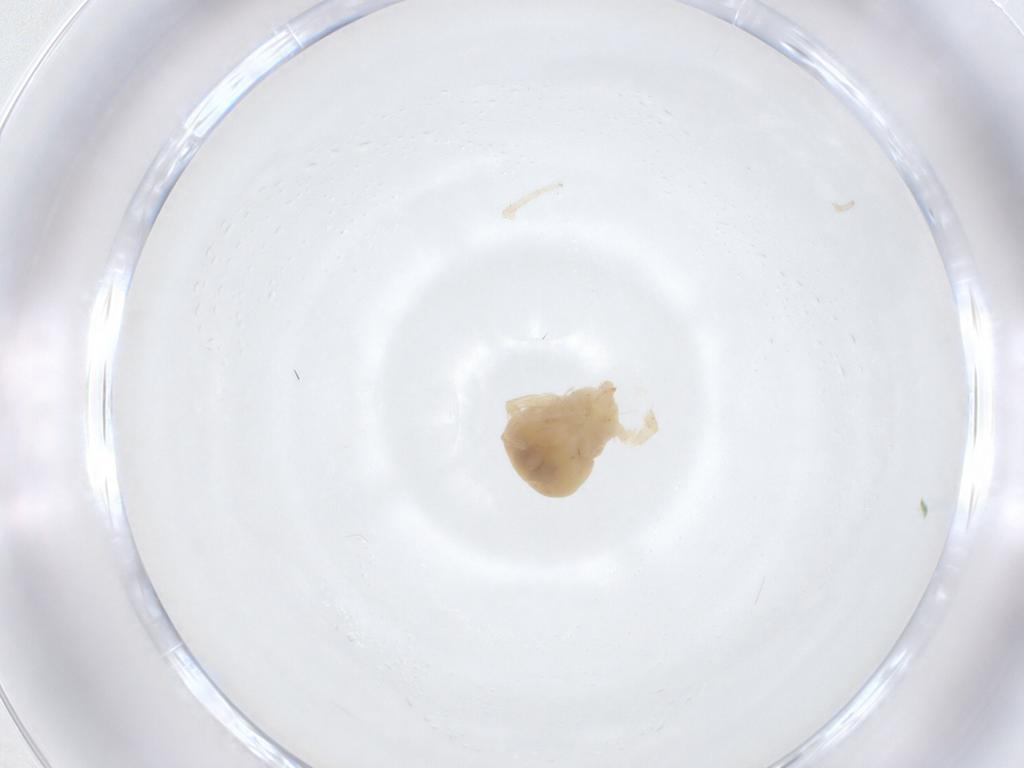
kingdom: Animalia
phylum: Arthropoda
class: Arachnida
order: Trombidiformes
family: Anystidae
